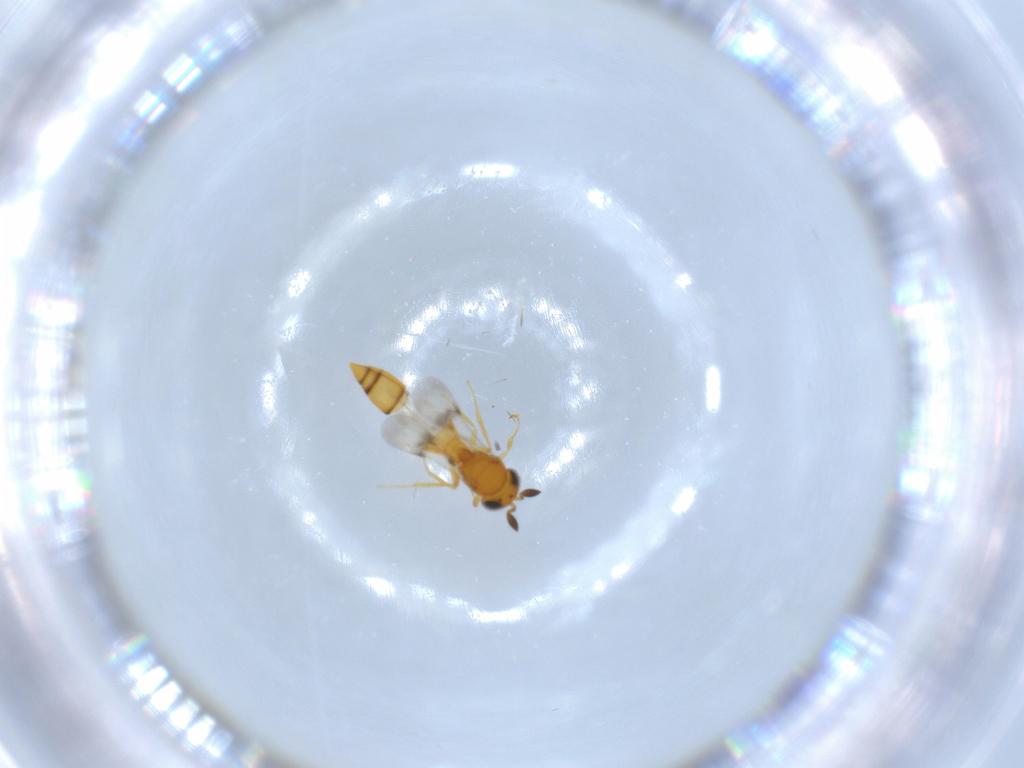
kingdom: Animalia
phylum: Arthropoda
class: Insecta
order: Hymenoptera
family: Scelionidae
